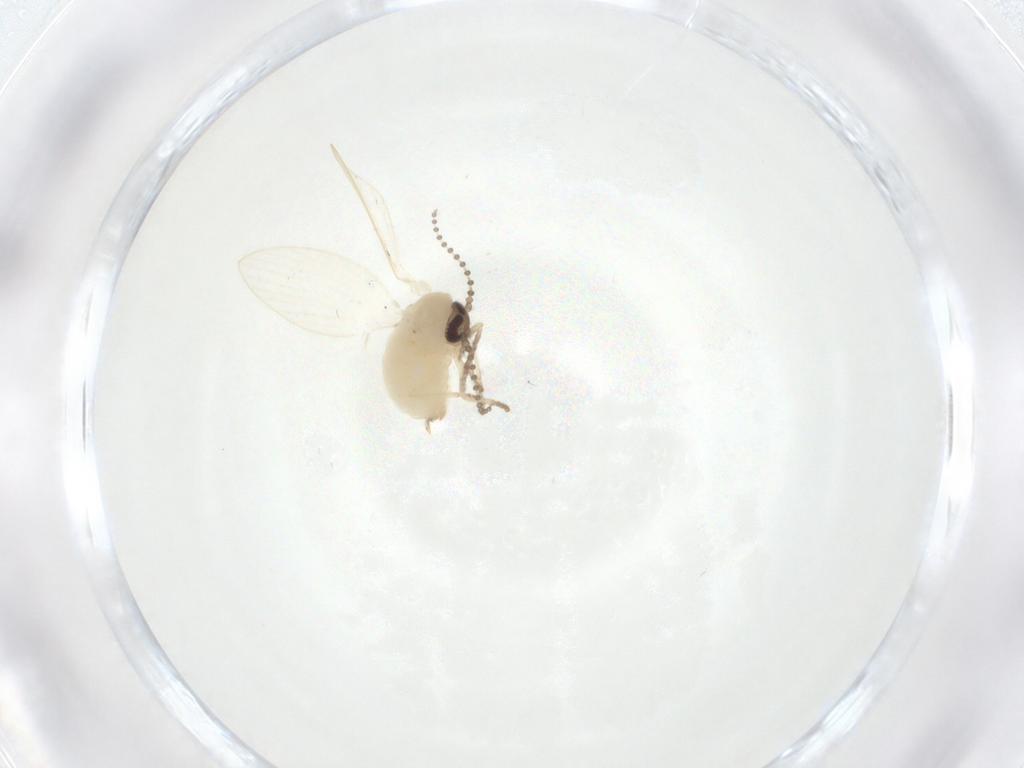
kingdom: Animalia
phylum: Arthropoda
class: Insecta
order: Diptera
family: Psychodidae
